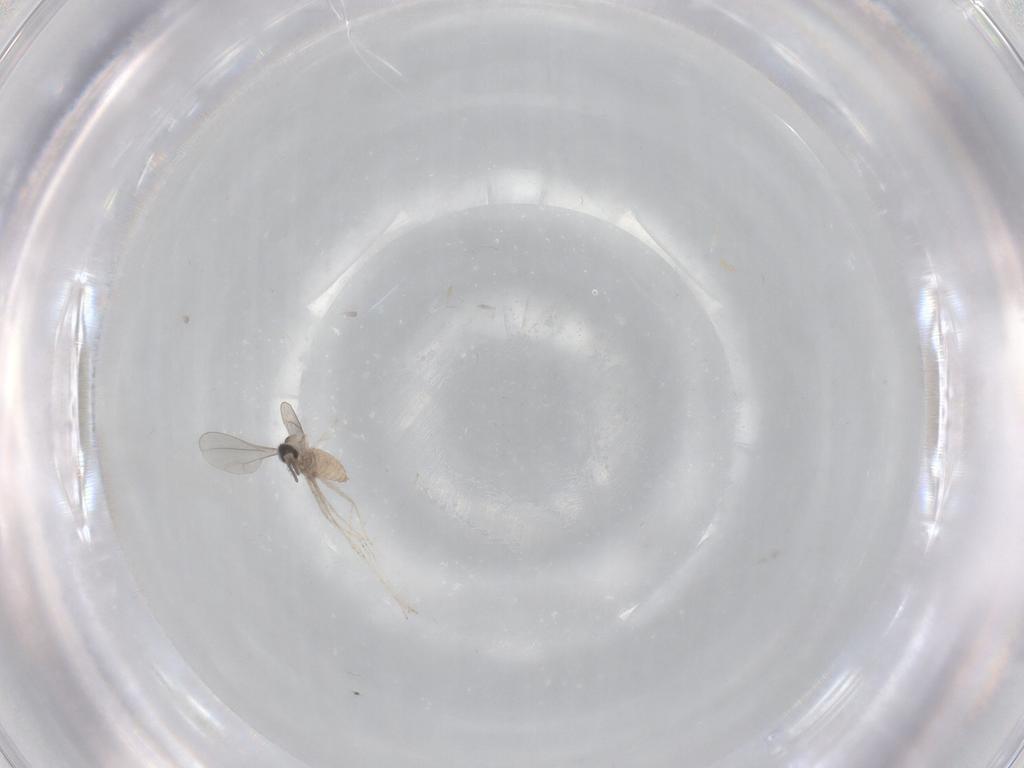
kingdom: Animalia
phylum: Arthropoda
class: Insecta
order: Diptera
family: Cecidomyiidae
